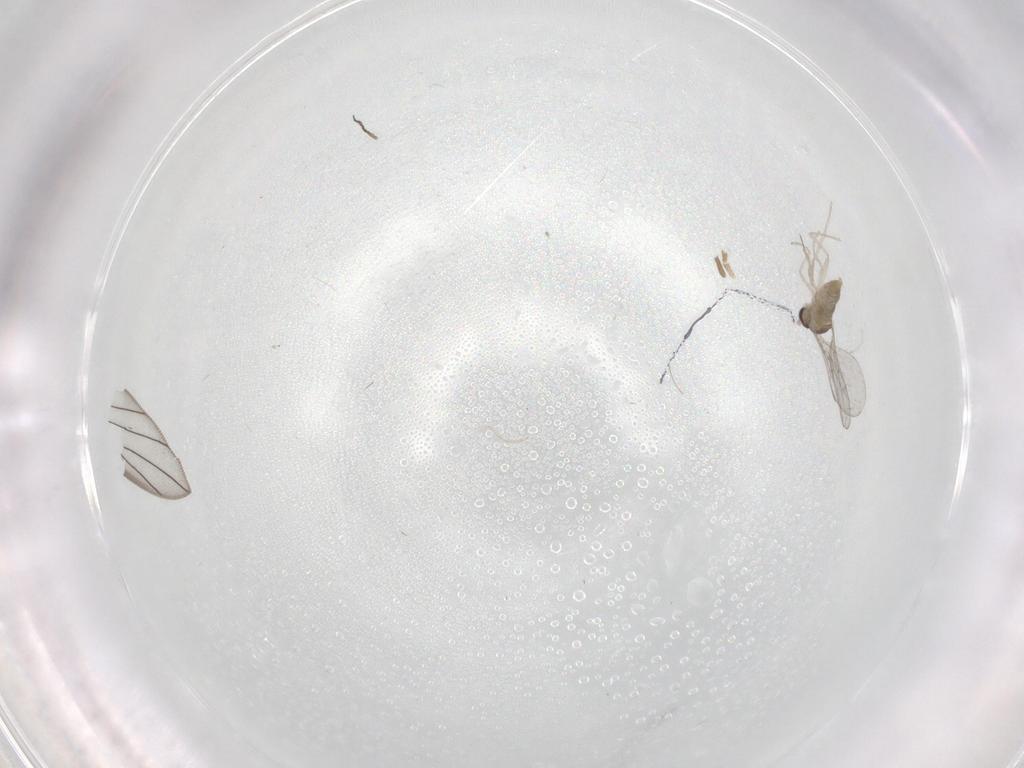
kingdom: Animalia
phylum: Arthropoda
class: Insecta
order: Diptera
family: Cecidomyiidae
